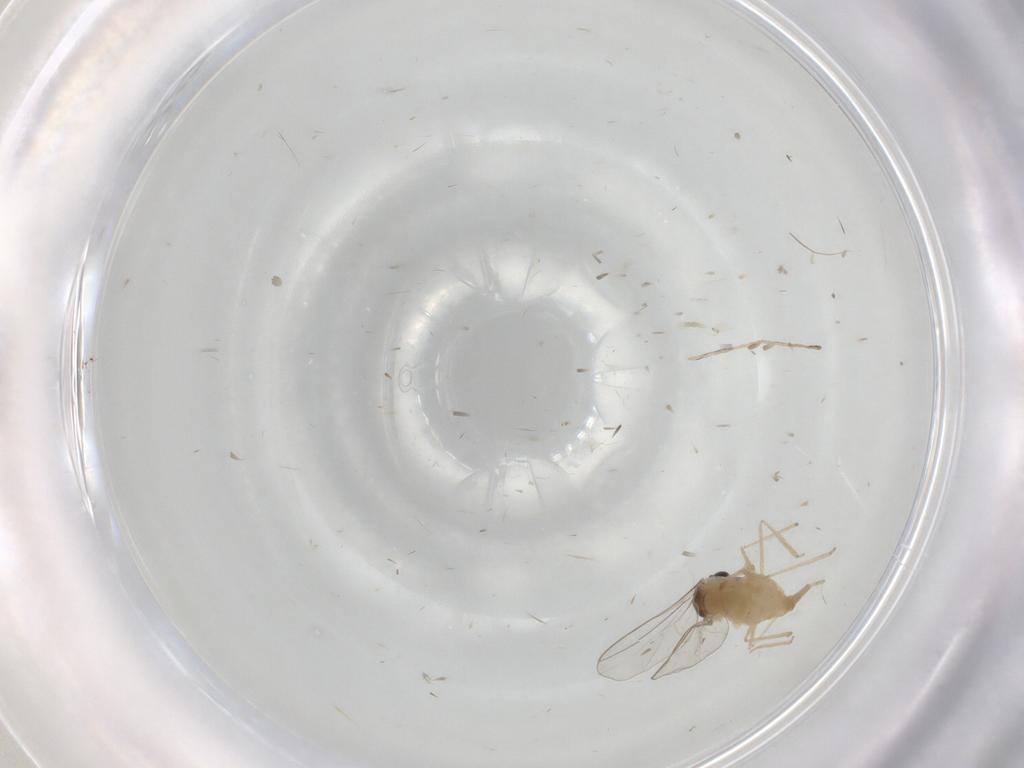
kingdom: Animalia
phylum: Arthropoda
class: Insecta
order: Diptera
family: Cecidomyiidae
